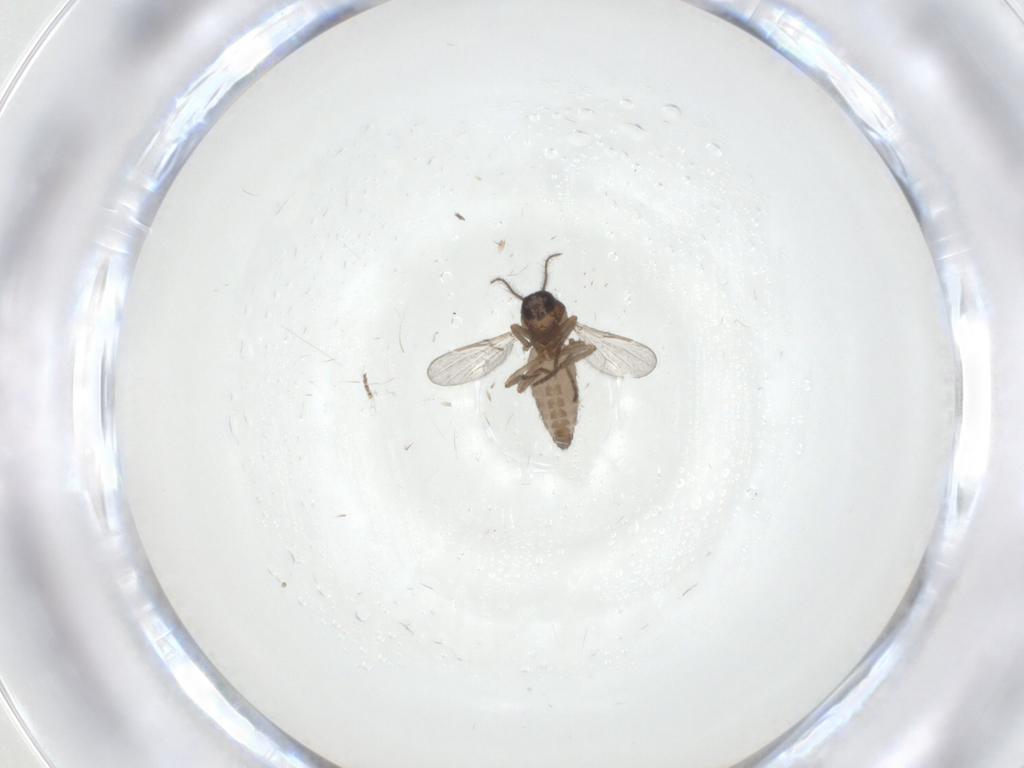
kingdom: Animalia
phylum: Arthropoda
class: Insecta
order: Diptera
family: Ceratopogonidae
